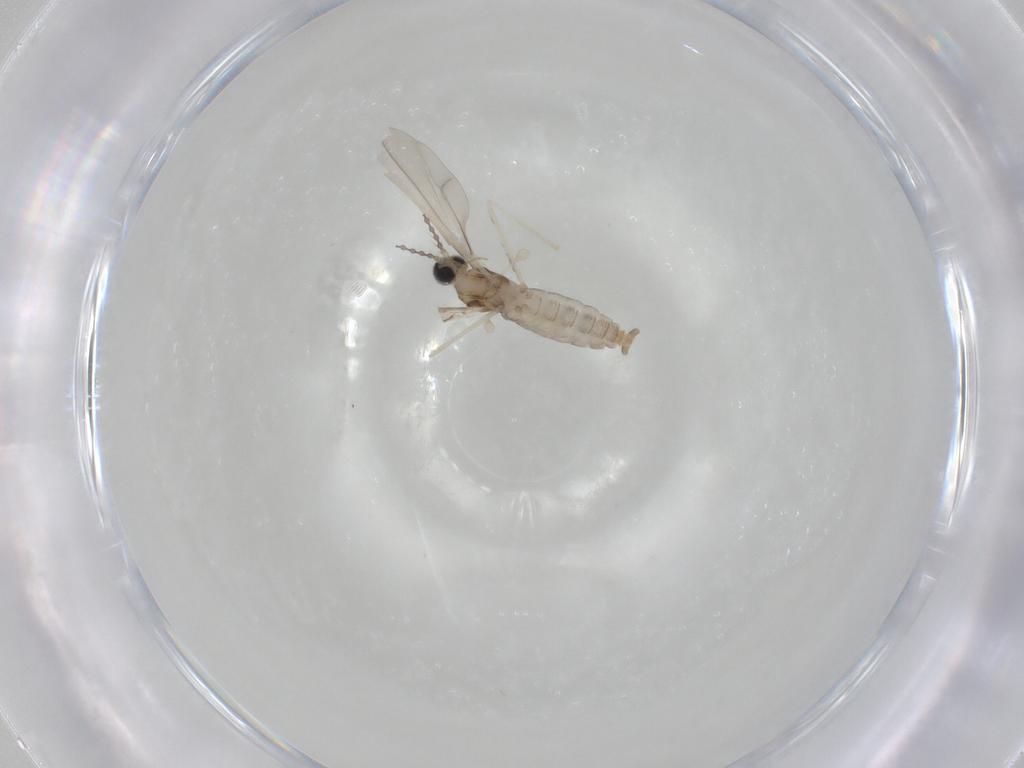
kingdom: Animalia
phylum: Arthropoda
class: Insecta
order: Diptera
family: Cecidomyiidae
